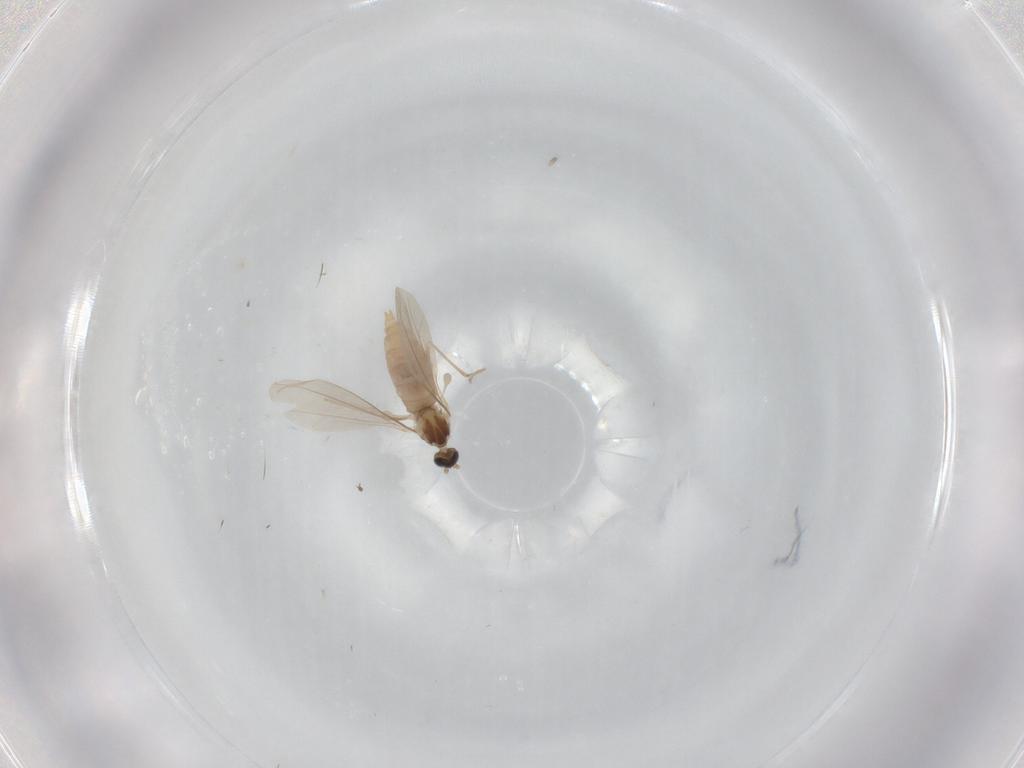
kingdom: Animalia
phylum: Arthropoda
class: Insecta
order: Diptera
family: Cecidomyiidae
